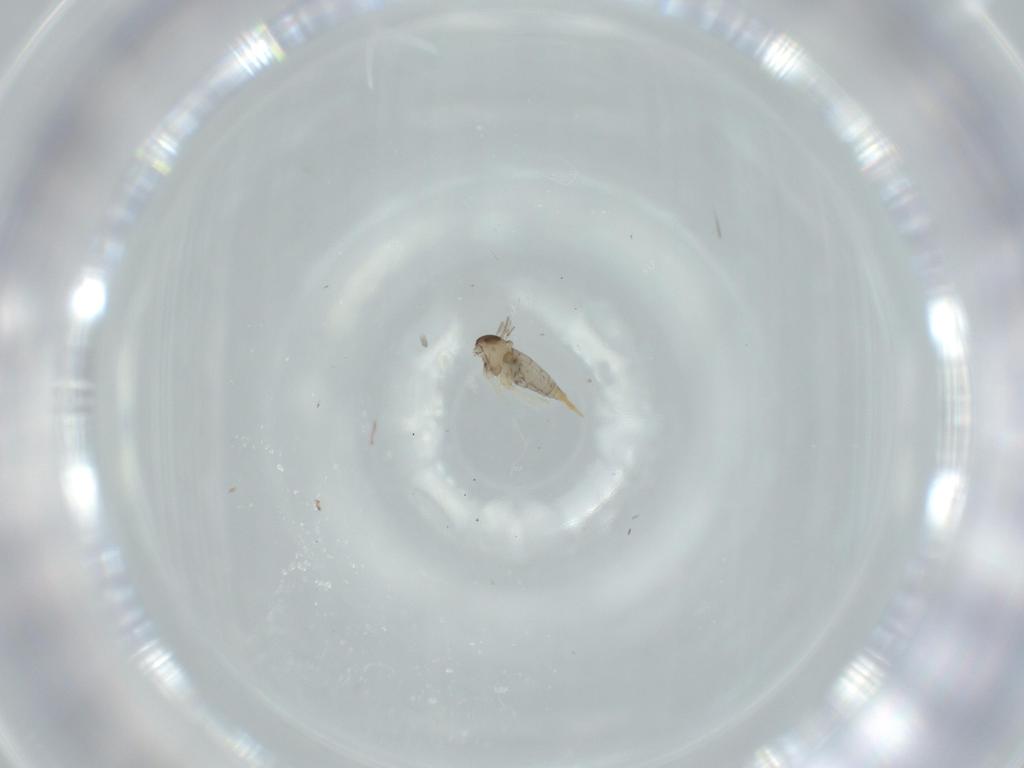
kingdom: Animalia
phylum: Arthropoda
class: Insecta
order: Diptera
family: Cecidomyiidae
